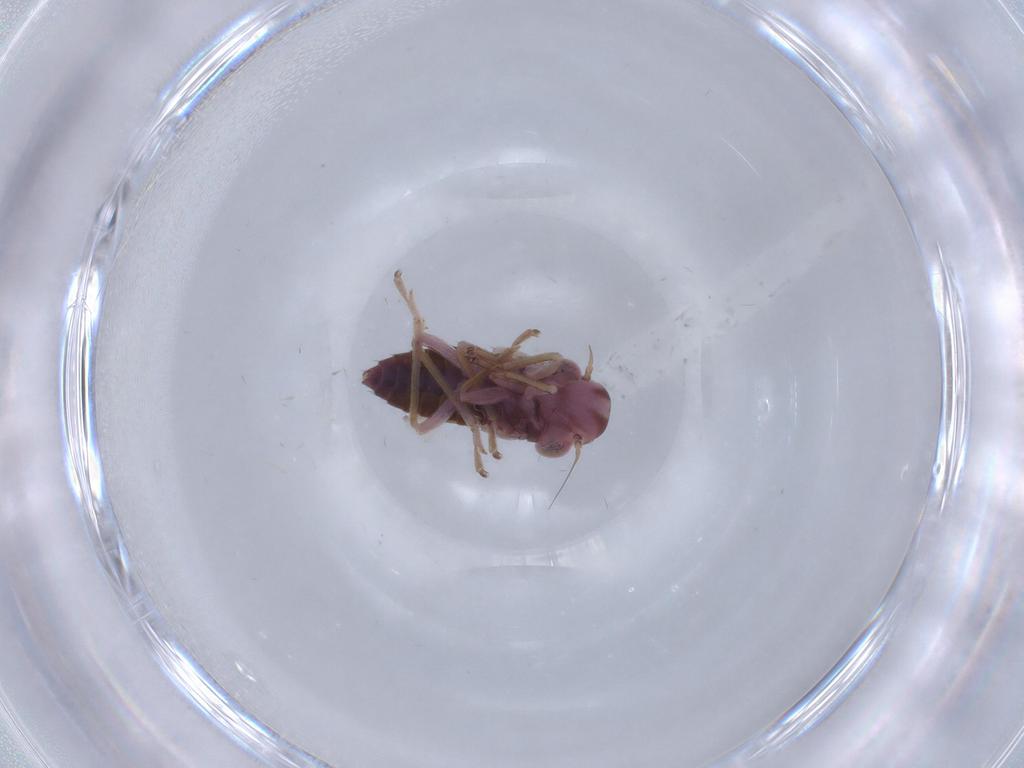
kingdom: Animalia
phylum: Arthropoda
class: Insecta
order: Hemiptera
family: Cicadellidae
